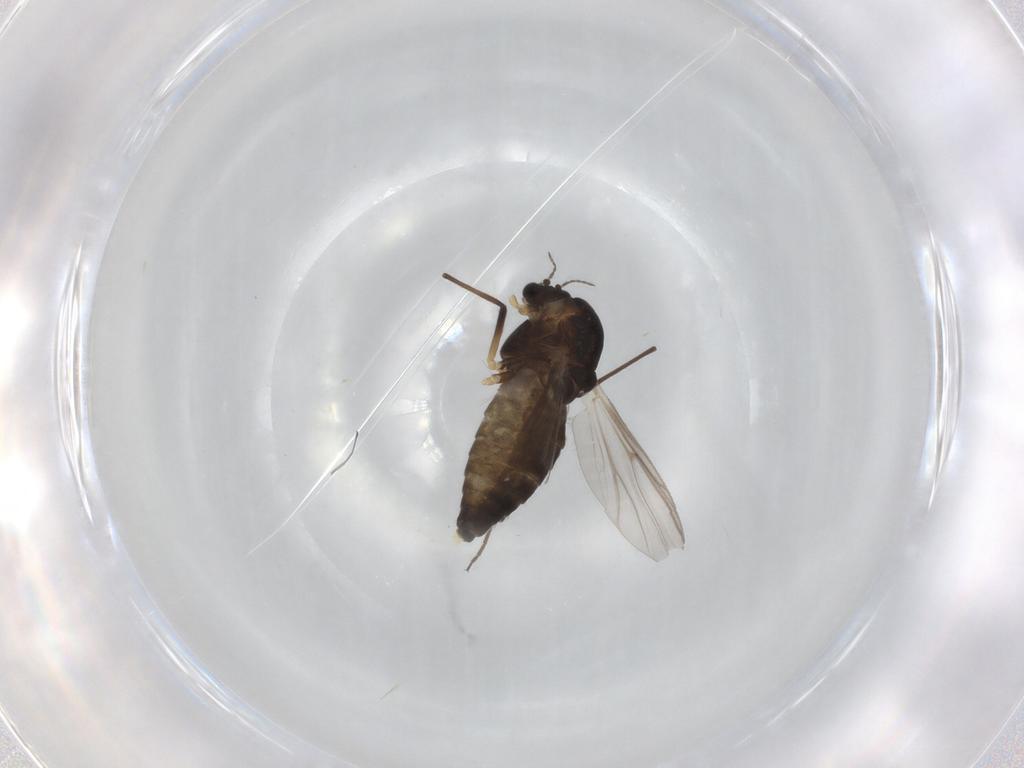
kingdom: Animalia
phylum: Arthropoda
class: Insecta
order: Diptera
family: Chironomidae
